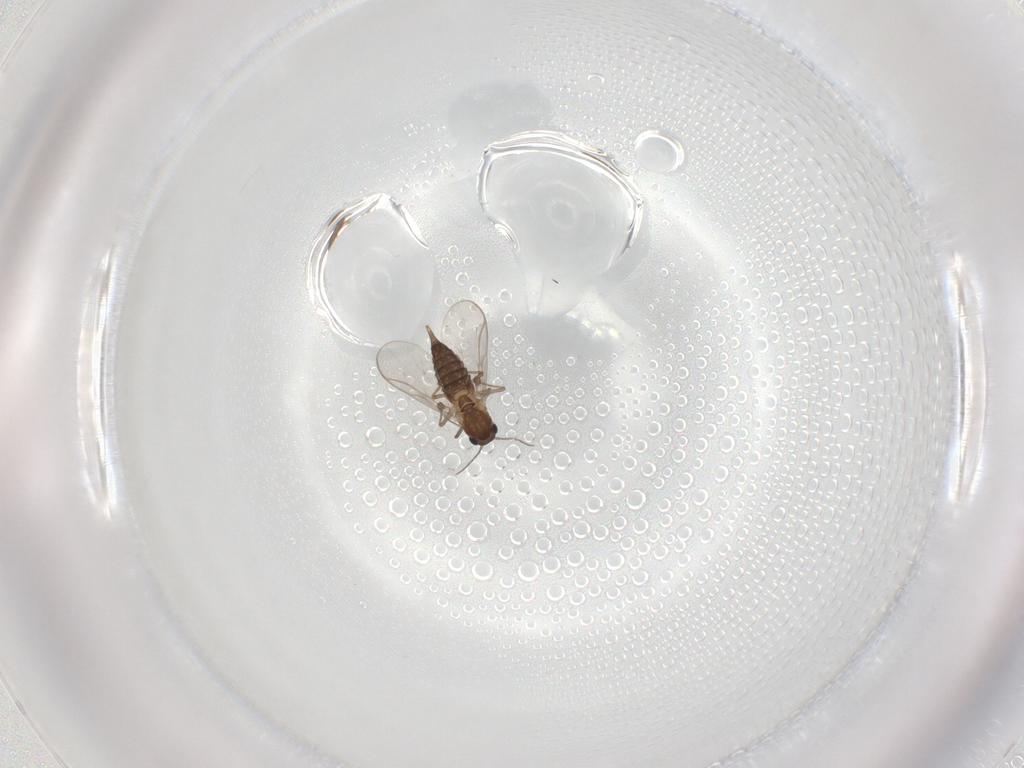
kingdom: Animalia
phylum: Arthropoda
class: Insecta
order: Diptera
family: Chironomidae
